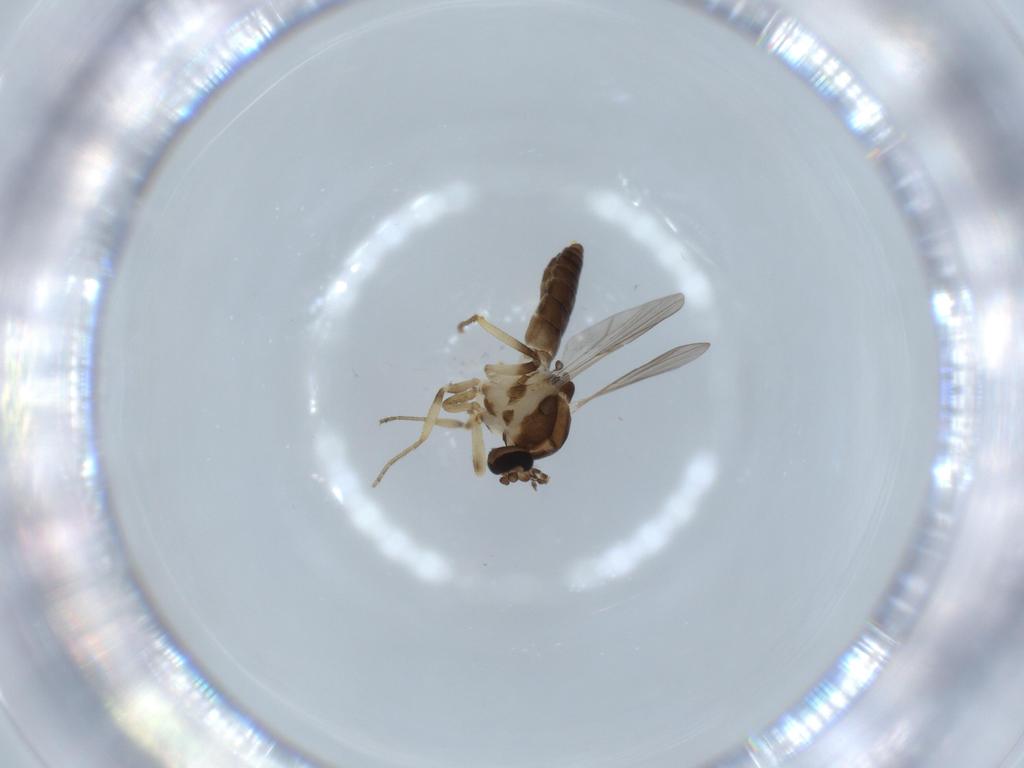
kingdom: Animalia
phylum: Arthropoda
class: Insecta
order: Diptera
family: Ceratopogonidae
